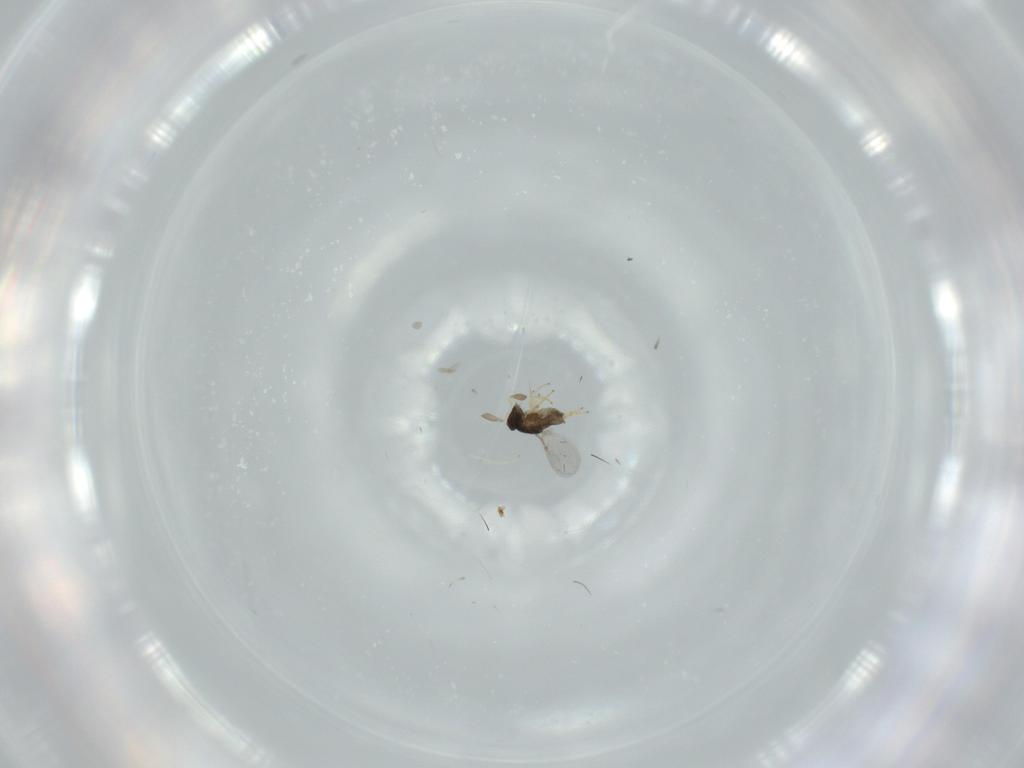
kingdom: Animalia
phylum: Arthropoda
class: Insecta
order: Hymenoptera
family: Encyrtidae
